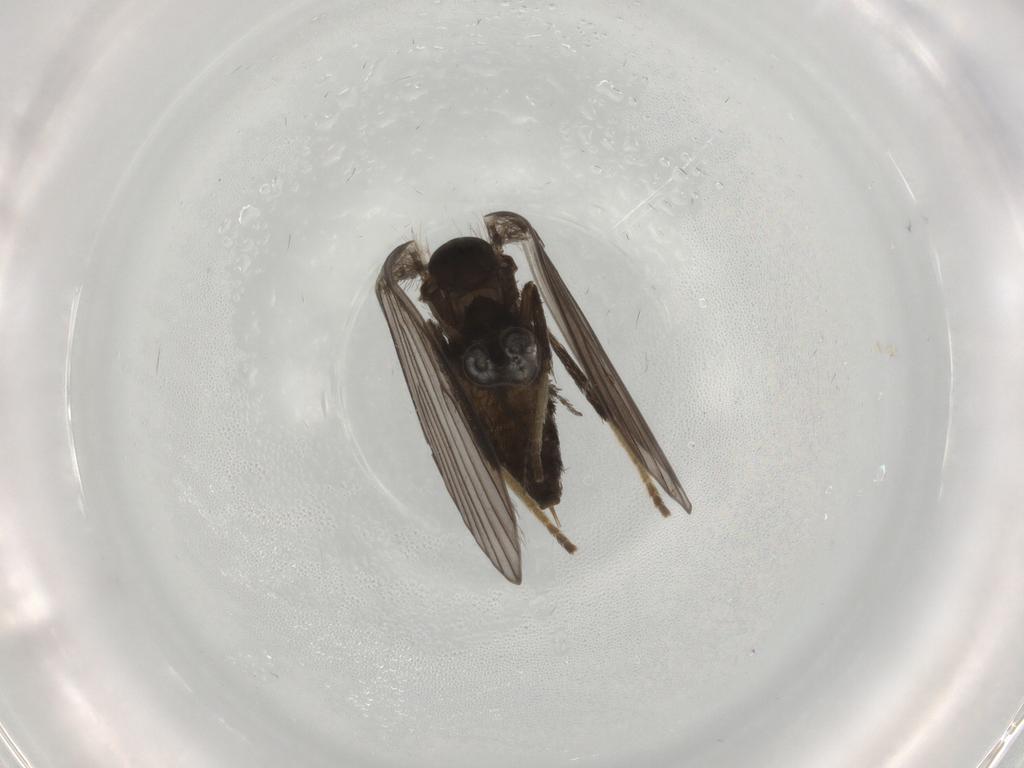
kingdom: Animalia
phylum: Arthropoda
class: Insecta
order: Diptera
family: Psychodidae
